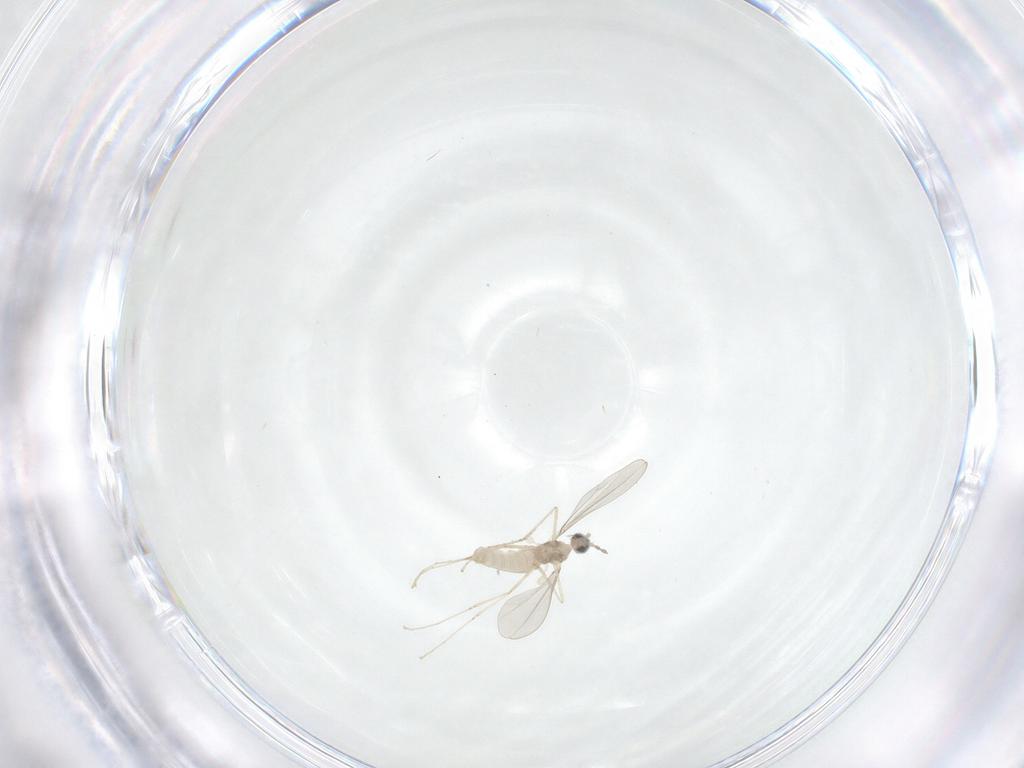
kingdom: Animalia
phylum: Arthropoda
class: Insecta
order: Diptera
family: Cecidomyiidae
